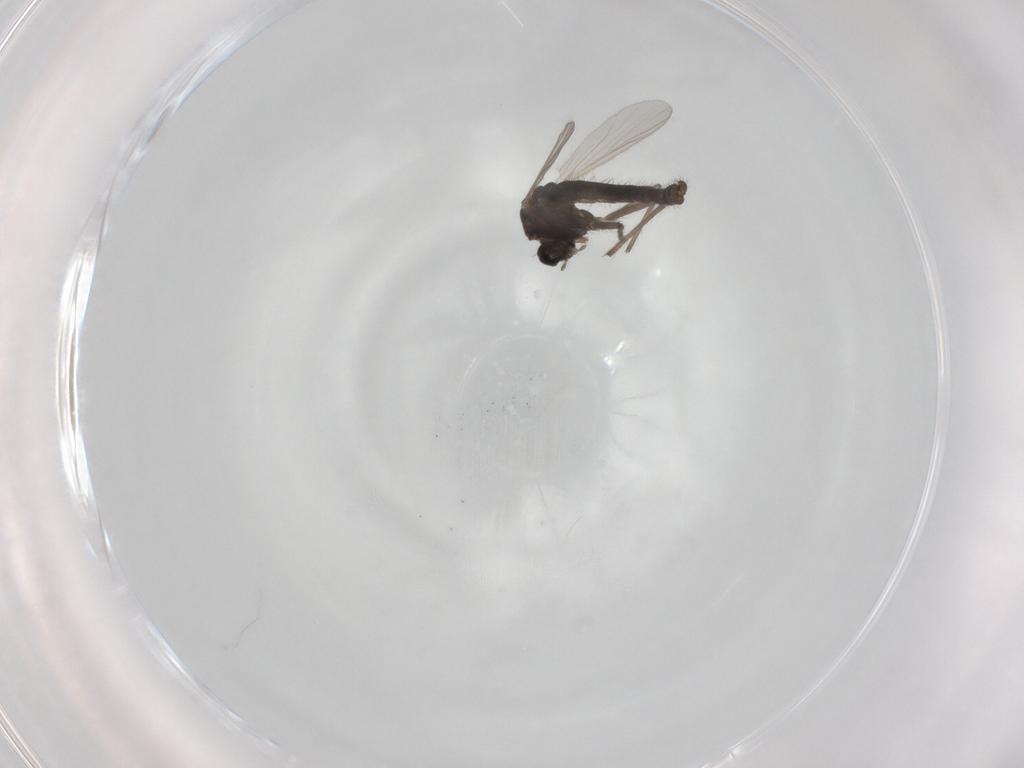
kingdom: Animalia
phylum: Arthropoda
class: Insecta
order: Diptera
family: Chironomidae
